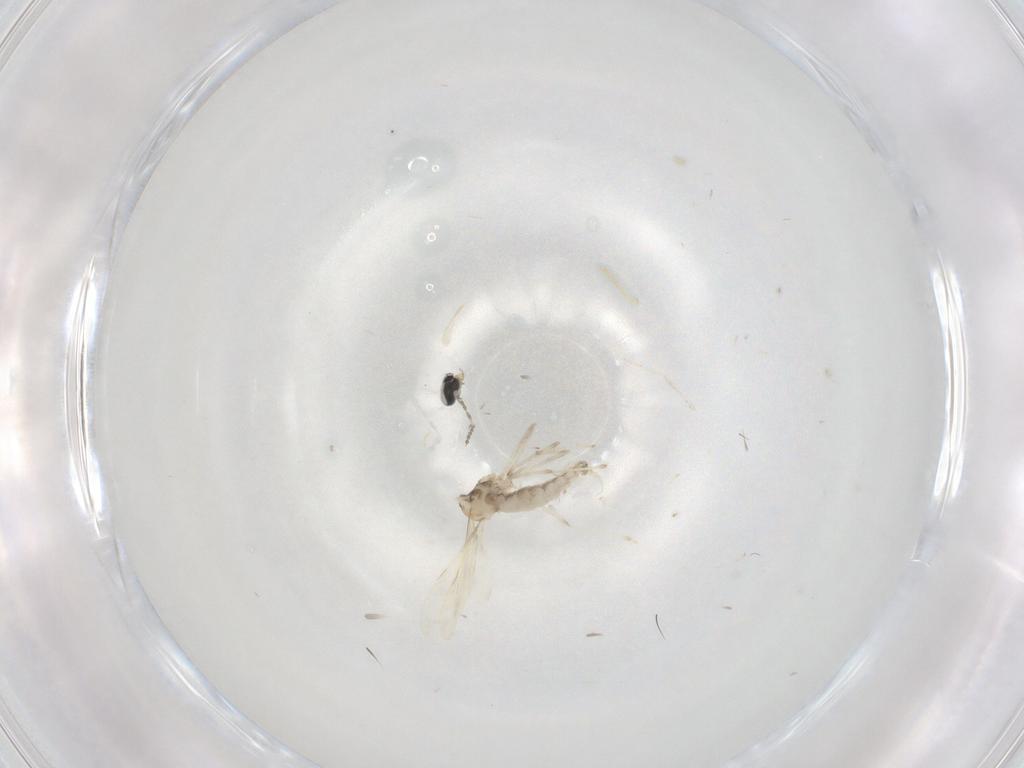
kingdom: Animalia
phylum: Arthropoda
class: Insecta
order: Diptera
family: Cecidomyiidae
